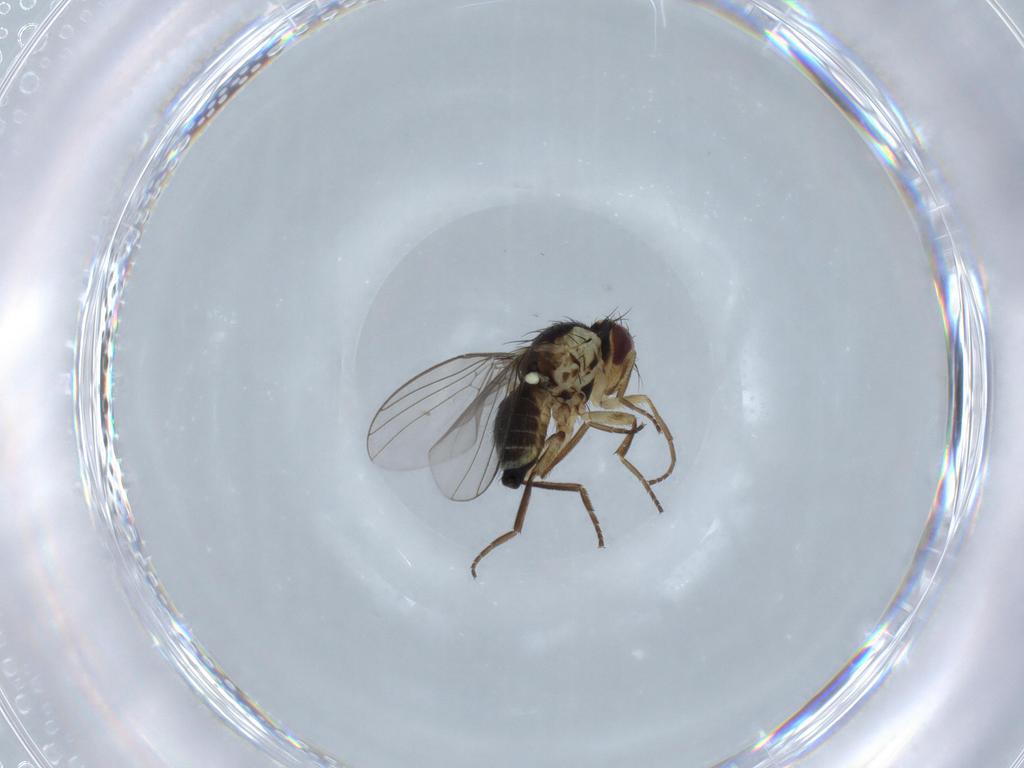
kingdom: Animalia
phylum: Arthropoda
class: Insecta
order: Diptera
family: Agromyzidae
